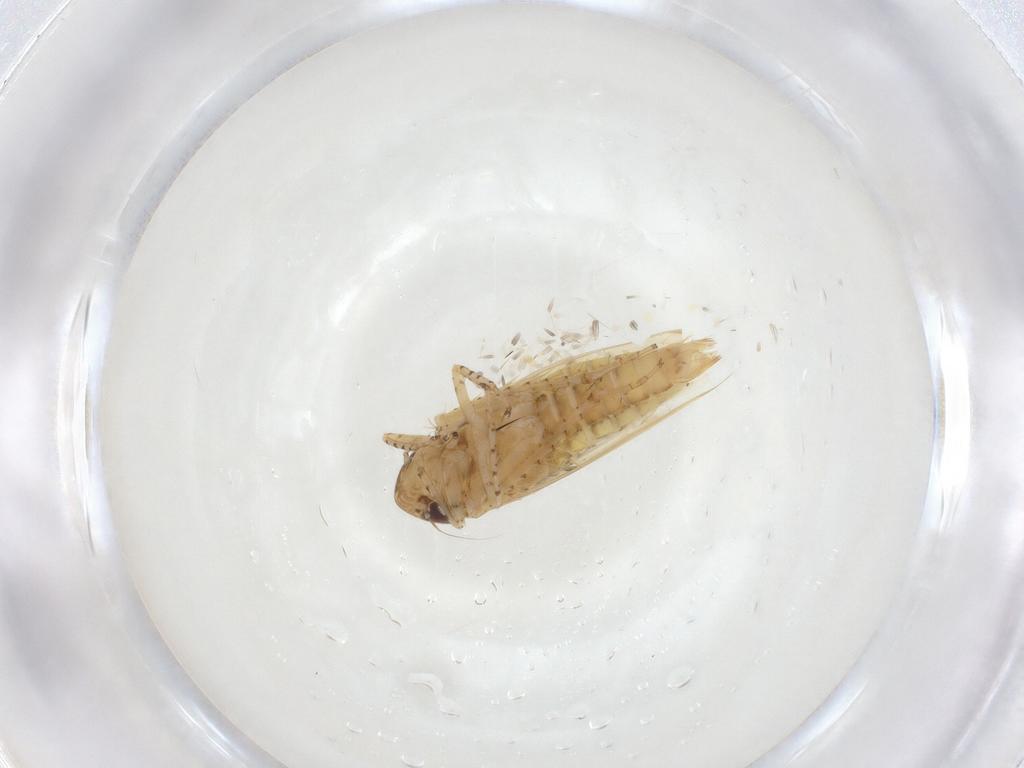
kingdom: Animalia
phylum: Arthropoda
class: Insecta
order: Hemiptera
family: Cicadellidae
